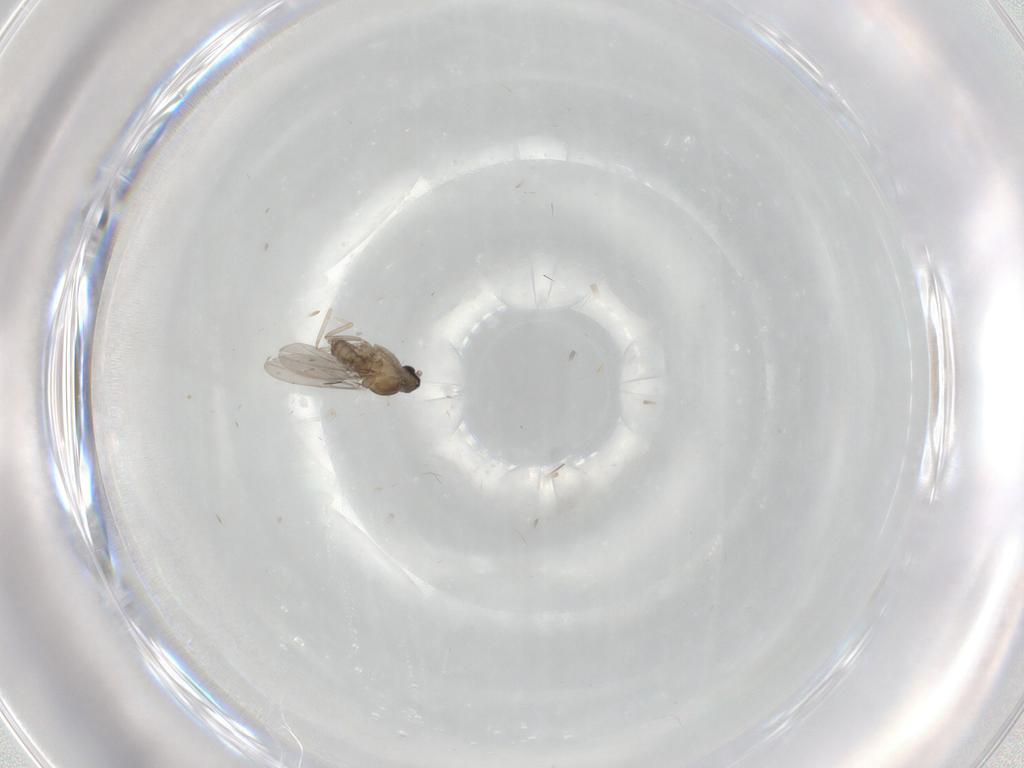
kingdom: Animalia
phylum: Arthropoda
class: Insecta
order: Diptera
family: Cecidomyiidae
